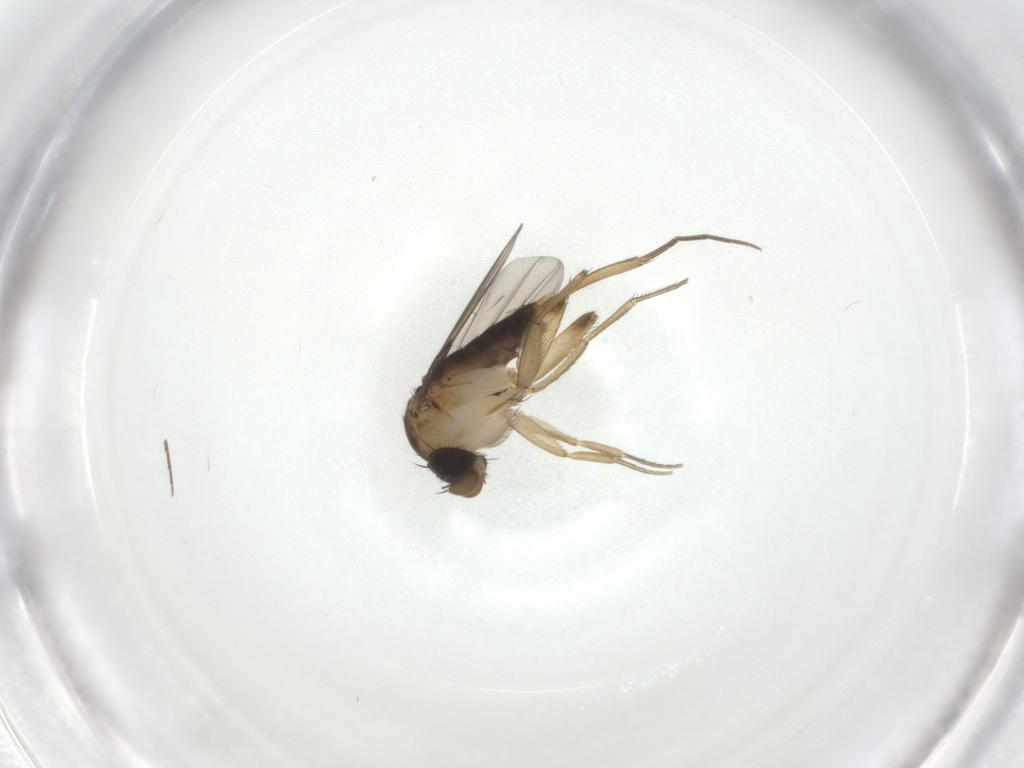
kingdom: Animalia
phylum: Arthropoda
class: Insecta
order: Diptera
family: Phoridae
